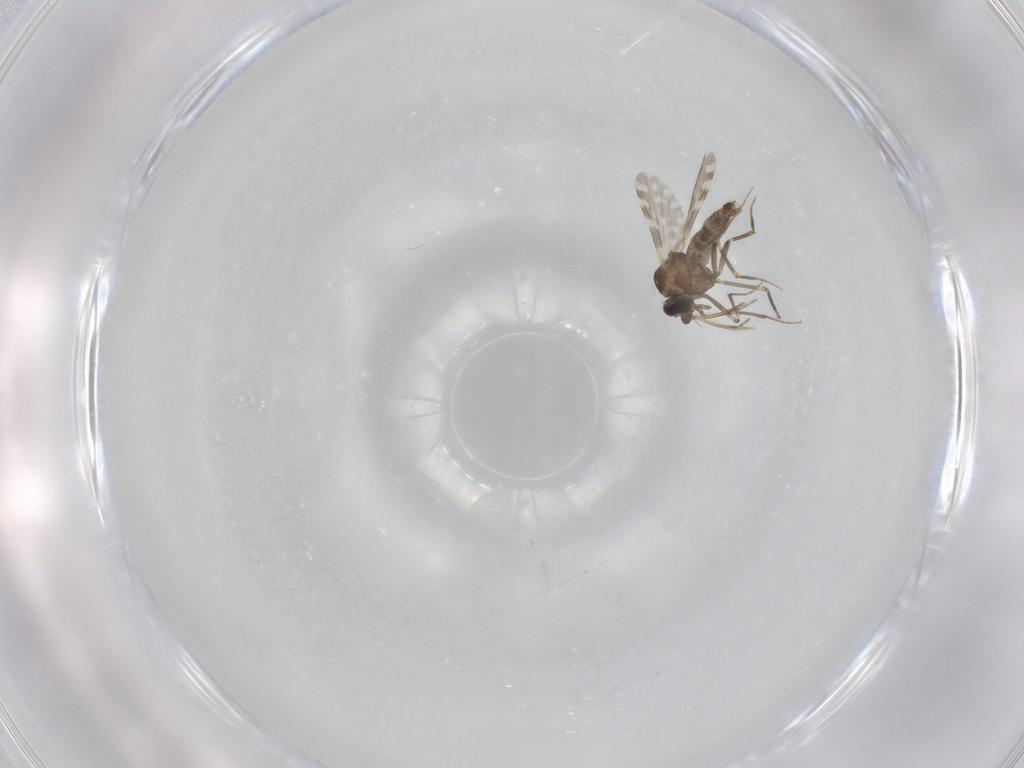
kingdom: Animalia
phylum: Arthropoda
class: Insecta
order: Diptera
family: Ceratopogonidae
